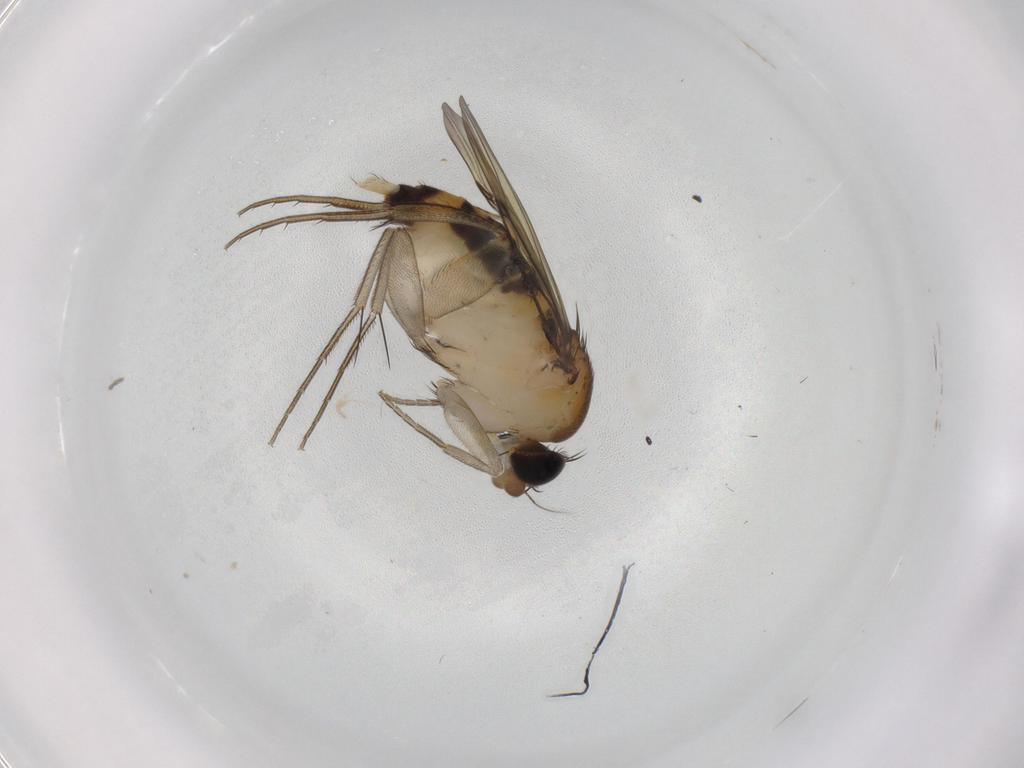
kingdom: Animalia
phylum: Arthropoda
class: Insecta
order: Diptera
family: Phoridae
